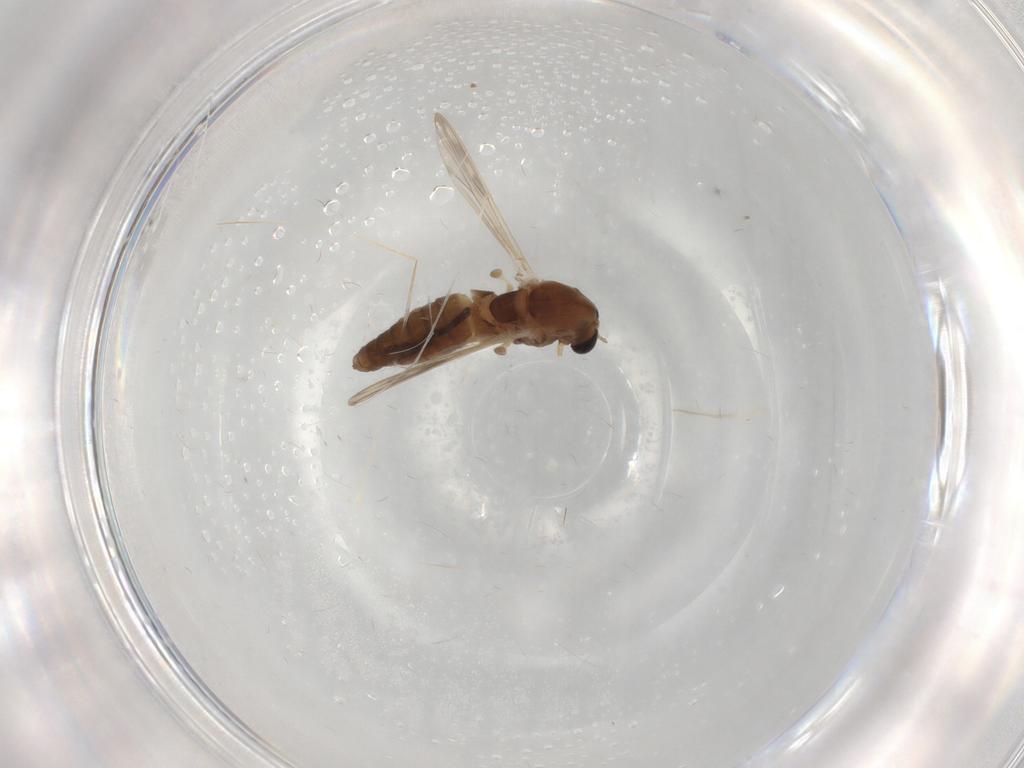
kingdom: Animalia
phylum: Arthropoda
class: Insecta
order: Diptera
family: Chironomidae
